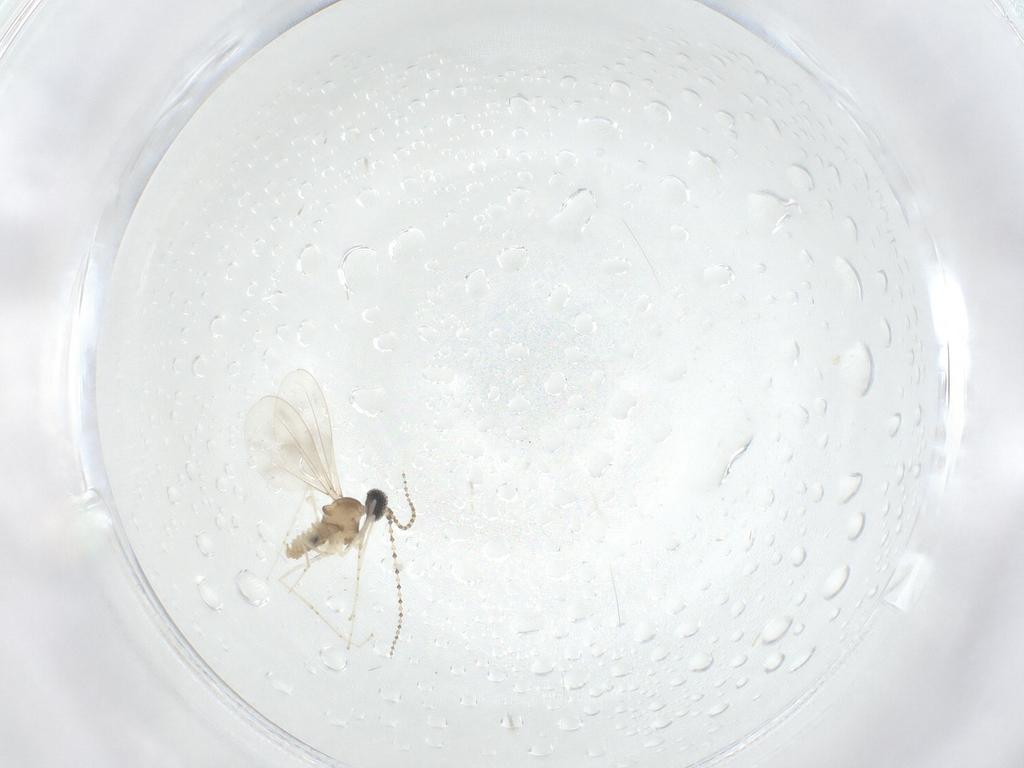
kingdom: Animalia
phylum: Arthropoda
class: Insecta
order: Diptera
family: Cecidomyiidae
